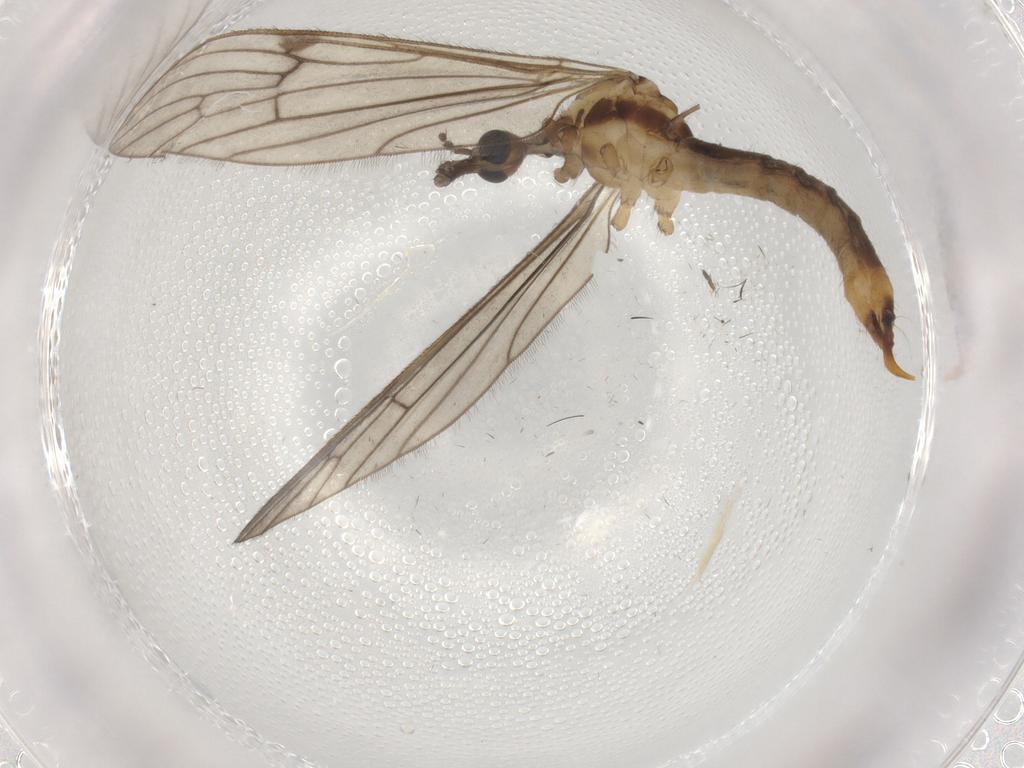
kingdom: Animalia
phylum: Arthropoda
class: Insecta
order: Diptera
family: Limoniidae
